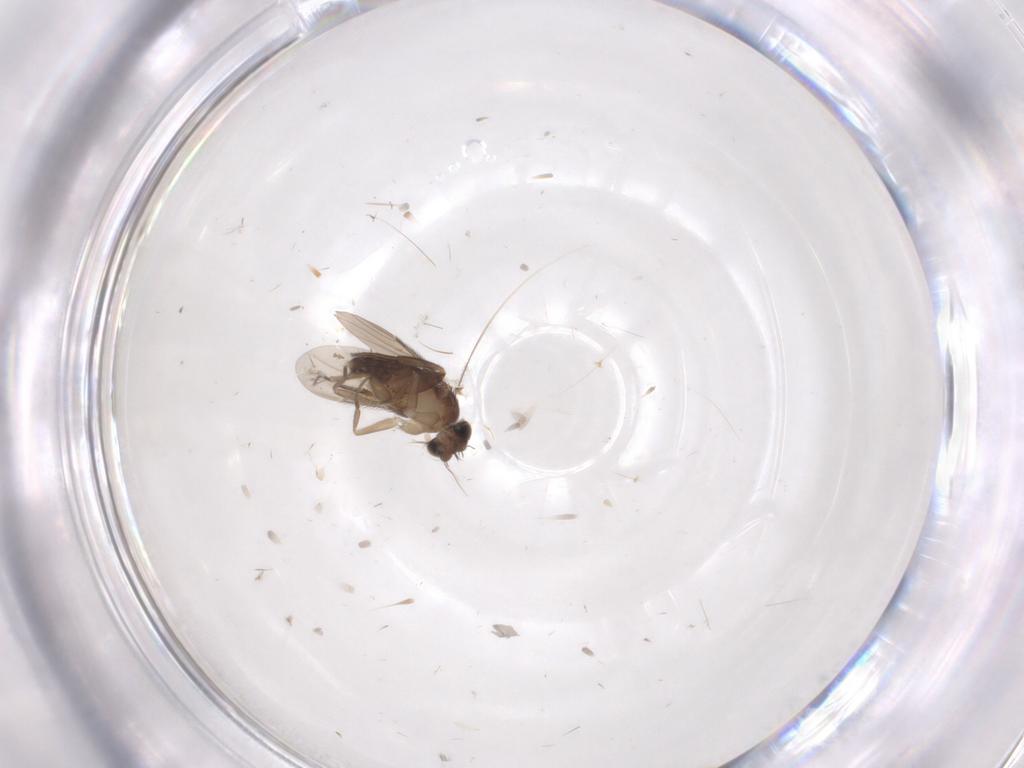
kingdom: Animalia
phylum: Arthropoda
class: Insecta
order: Diptera
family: Phoridae
